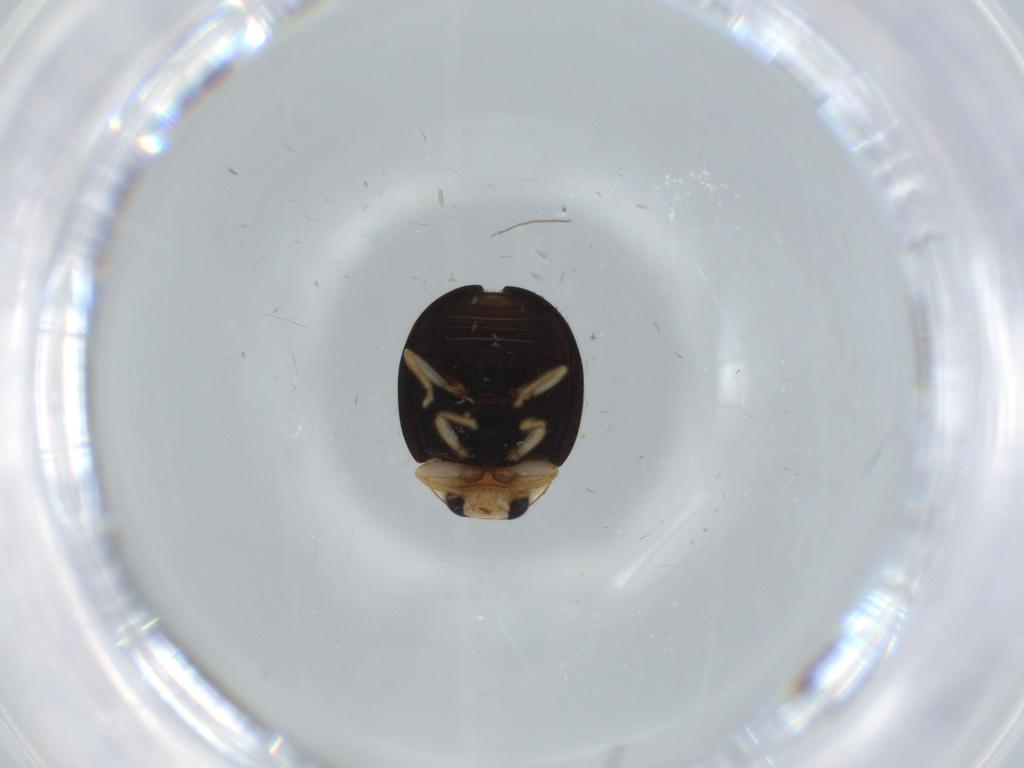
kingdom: Animalia
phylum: Arthropoda
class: Insecta
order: Coleoptera
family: Coccinellidae
